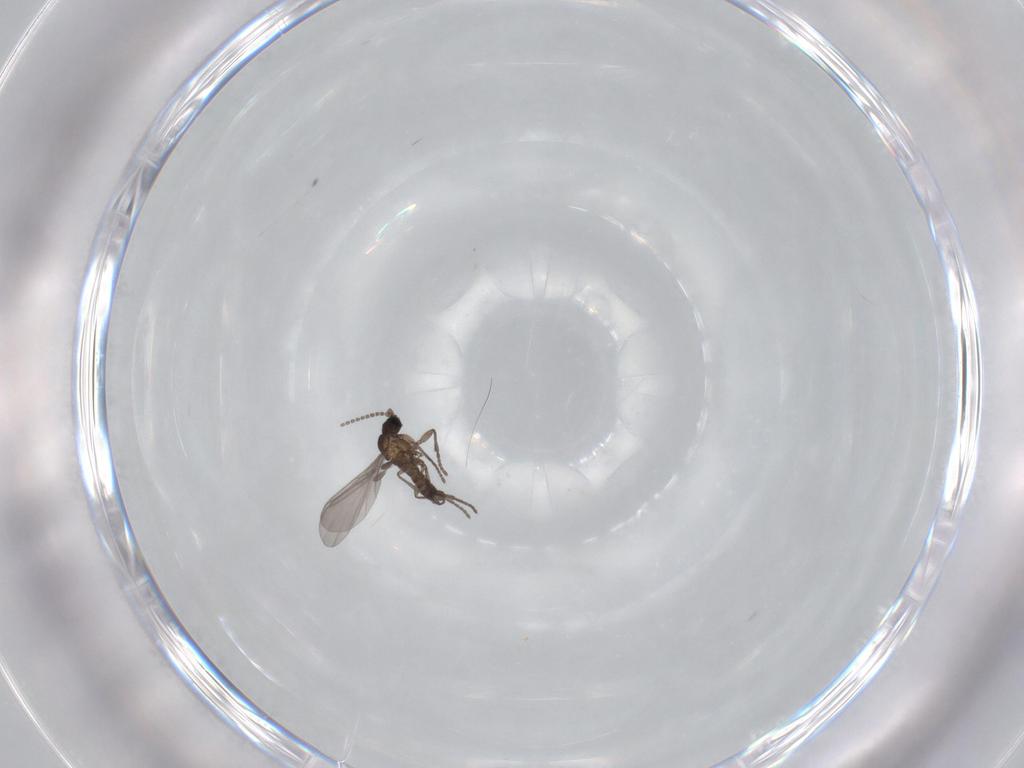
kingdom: Animalia
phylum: Arthropoda
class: Insecta
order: Diptera
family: Sciaridae
